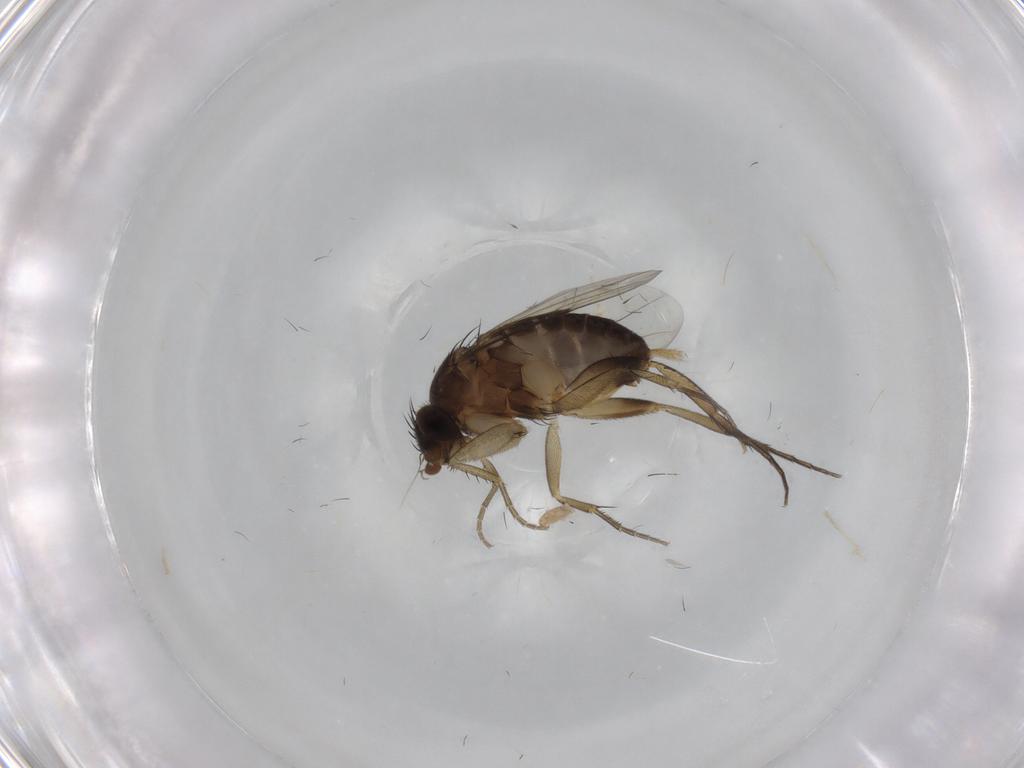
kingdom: Animalia
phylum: Arthropoda
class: Insecta
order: Diptera
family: Phoridae
